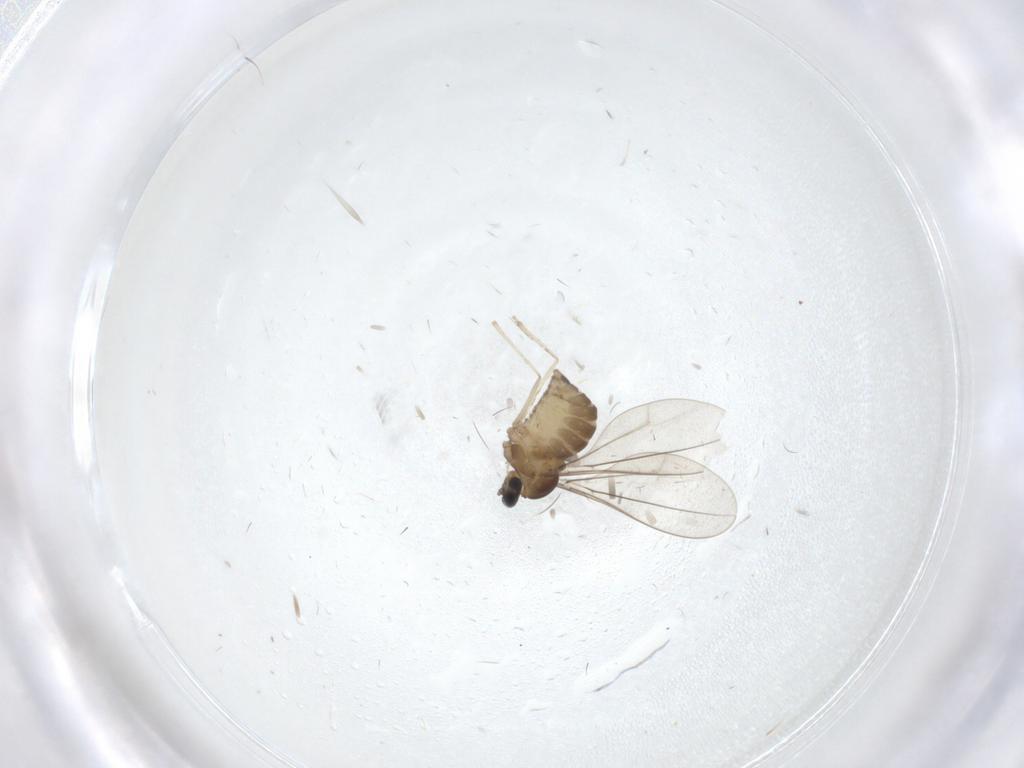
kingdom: Animalia
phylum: Arthropoda
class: Insecta
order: Diptera
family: Cecidomyiidae
